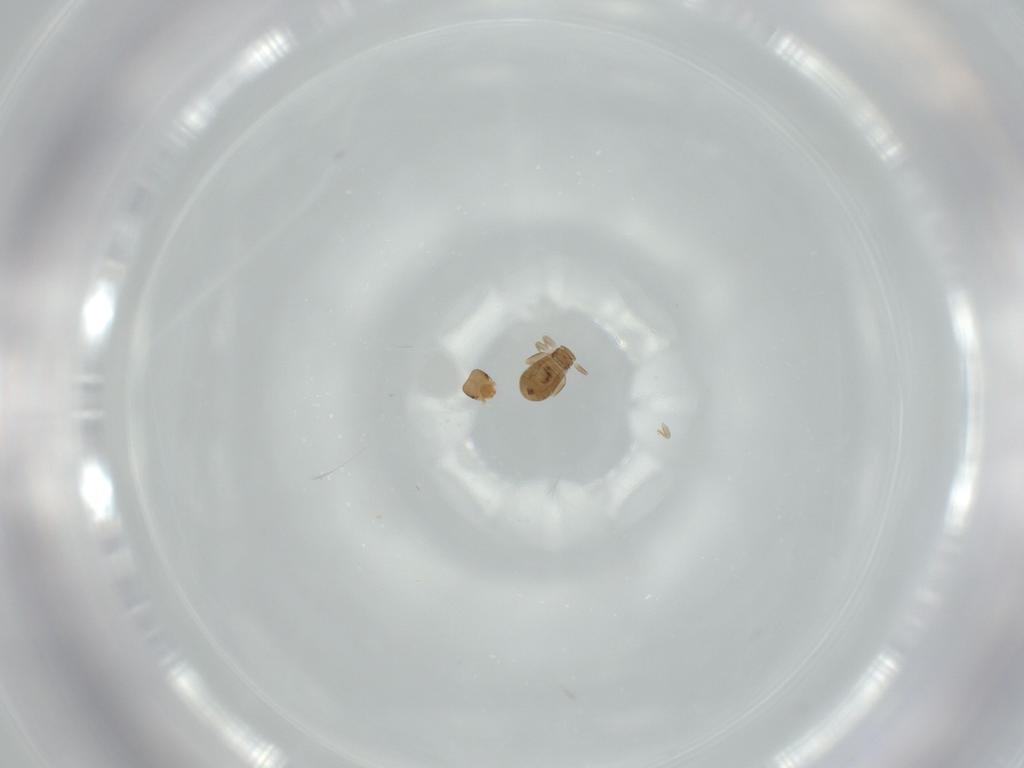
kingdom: Animalia
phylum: Arthropoda
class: Insecta
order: Psocodea
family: Liposcelididae
